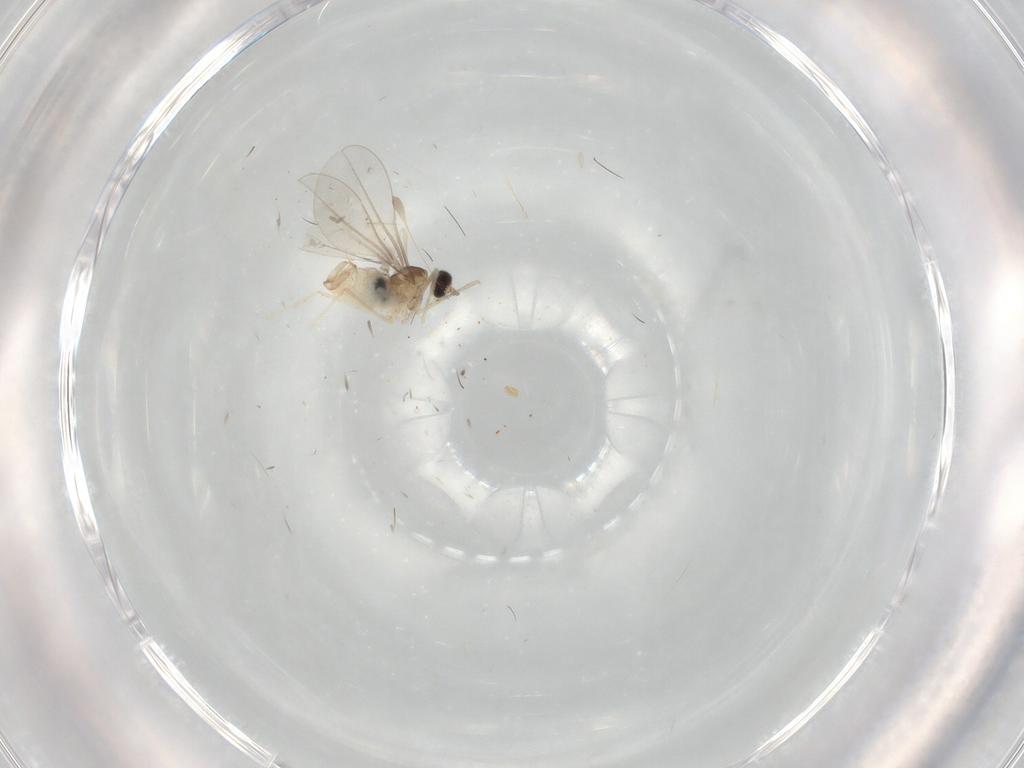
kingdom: Animalia
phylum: Arthropoda
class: Insecta
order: Diptera
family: Cecidomyiidae
